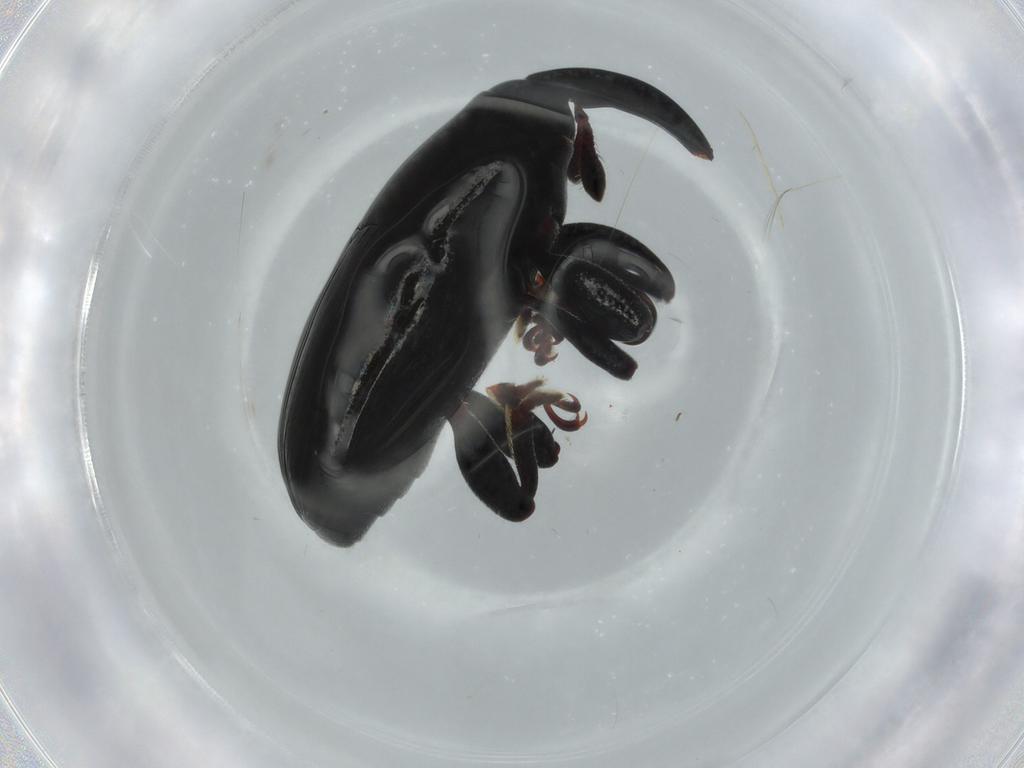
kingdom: Animalia
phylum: Arthropoda
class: Insecta
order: Coleoptera
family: Curculionidae
